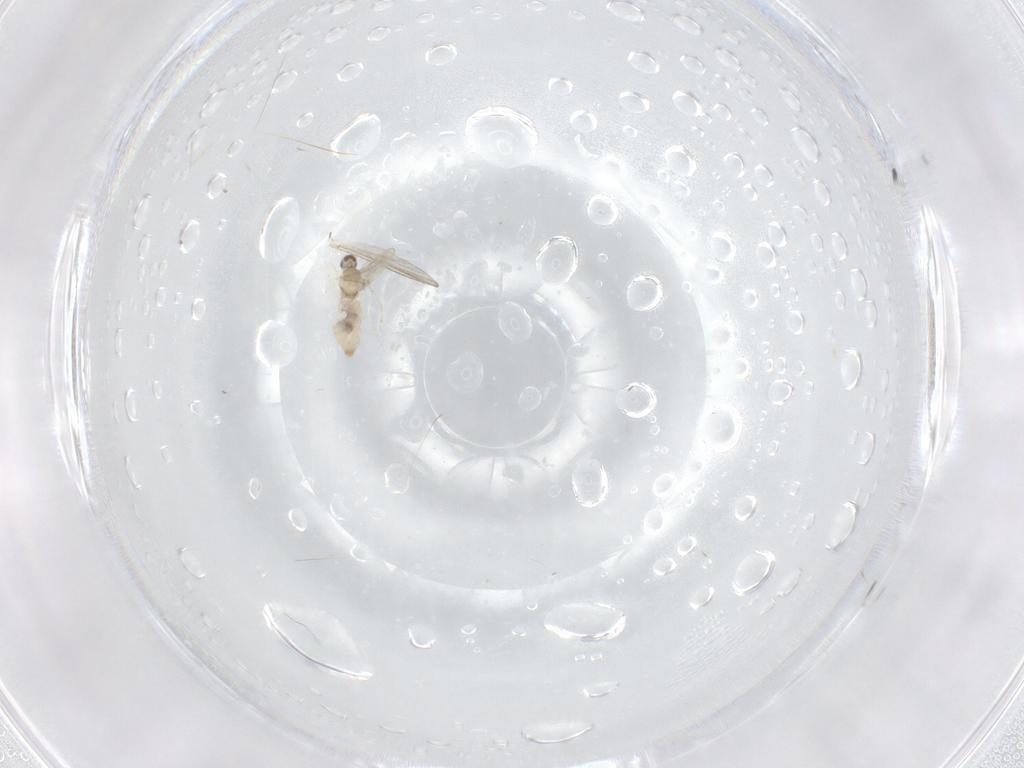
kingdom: Animalia
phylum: Arthropoda
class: Insecta
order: Diptera
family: Cecidomyiidae
